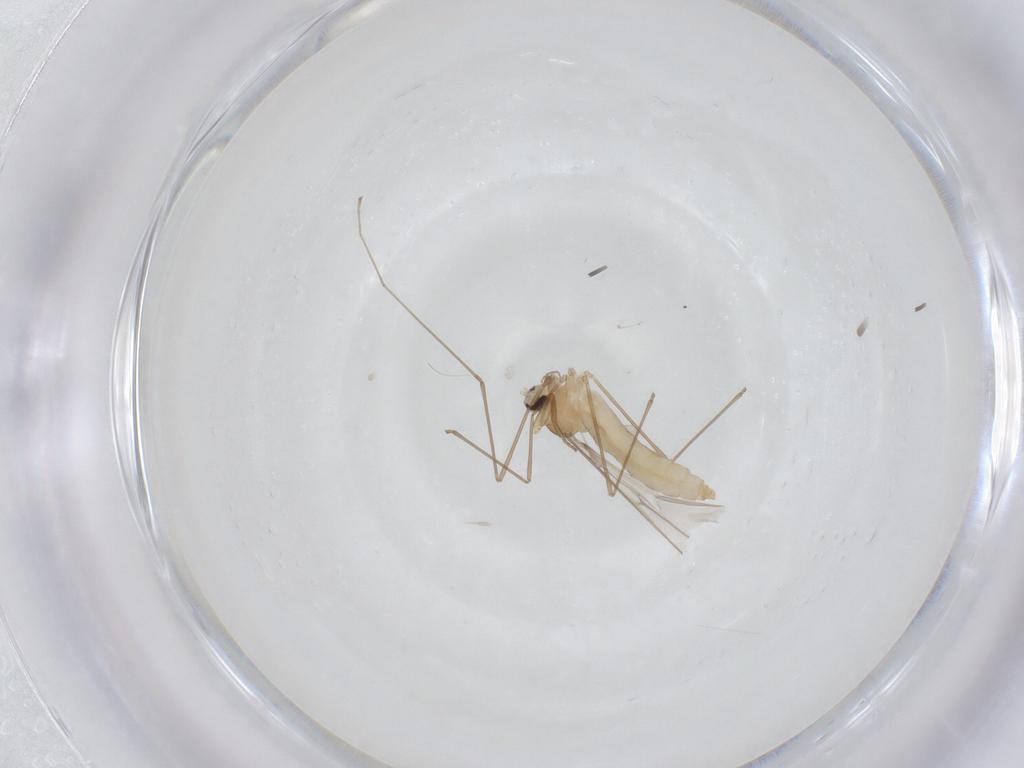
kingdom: Animalia
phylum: Arthropoda
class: Insecta
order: Diptera
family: Cecidomyiidae
